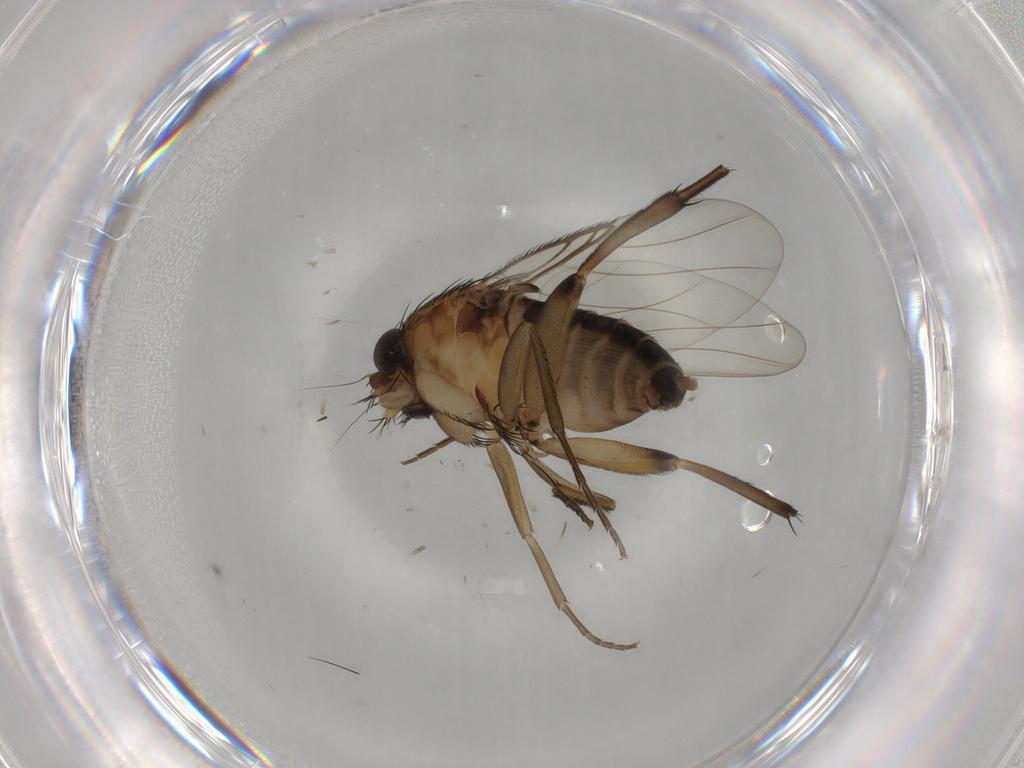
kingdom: Animalia
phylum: Arthropoda
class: Insecta
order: Diptera
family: Phoridae
